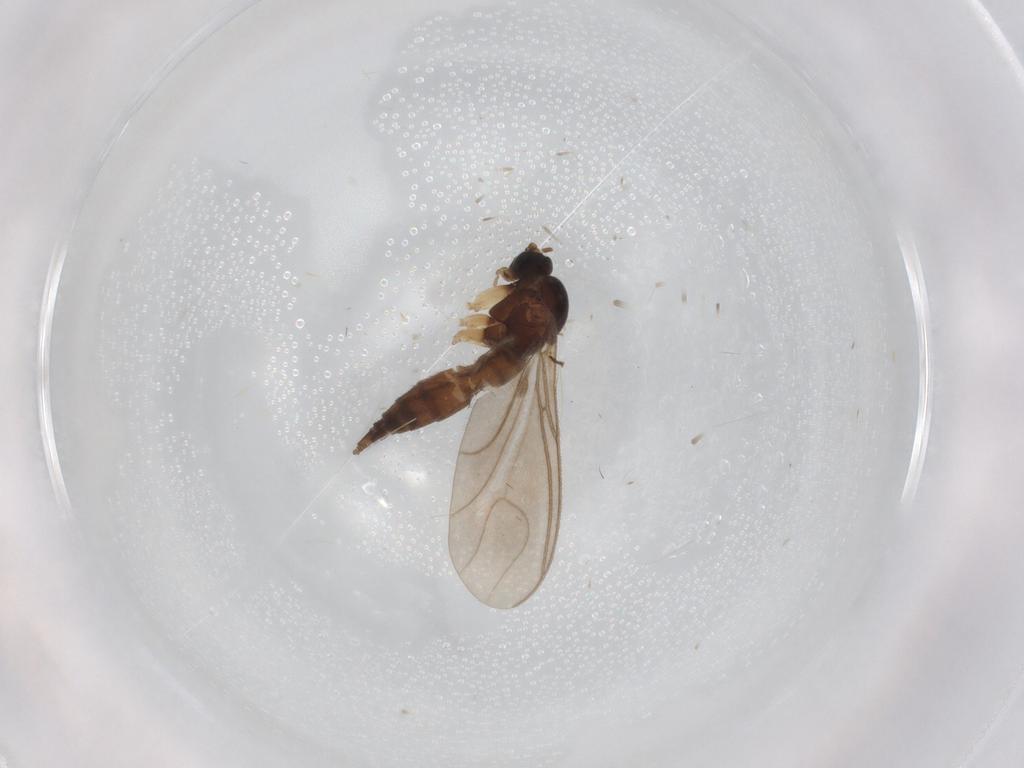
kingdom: Animalia
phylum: Arthropoda
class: Insecta
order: Diptera
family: Sciaridae
